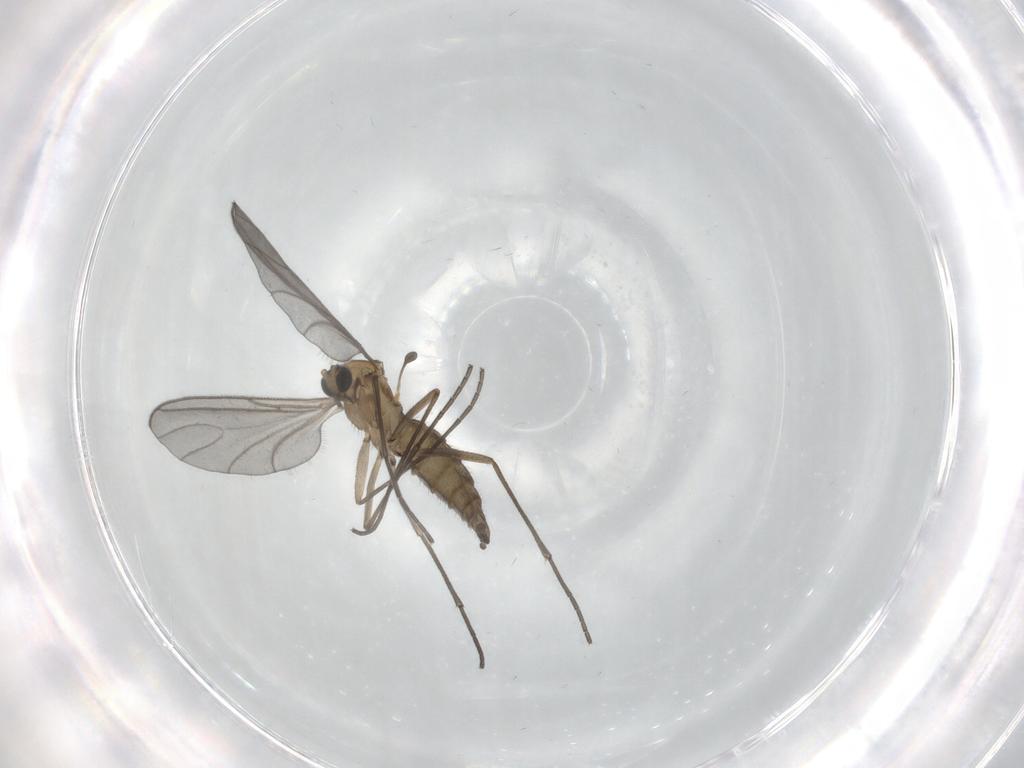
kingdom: Animalia
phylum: Arthropoda
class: Insecta
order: Diptera
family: Sciaridae
